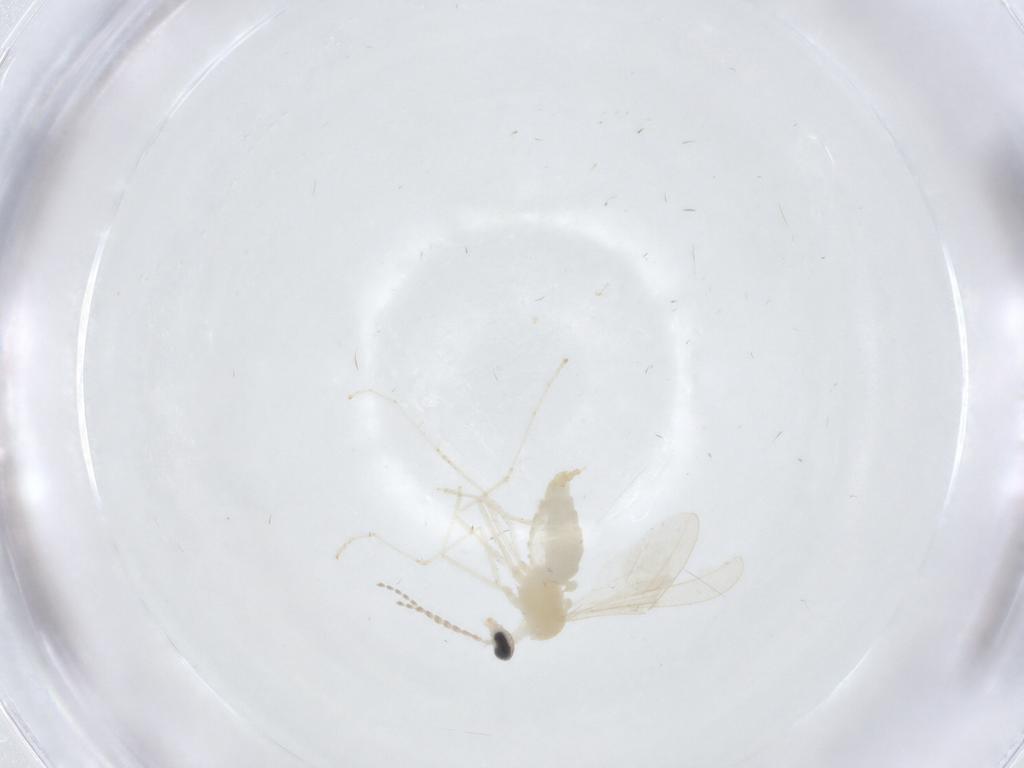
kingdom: Animalia
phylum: Arthropoda
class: Insecta
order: Diptera
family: Cecidomyiidae
